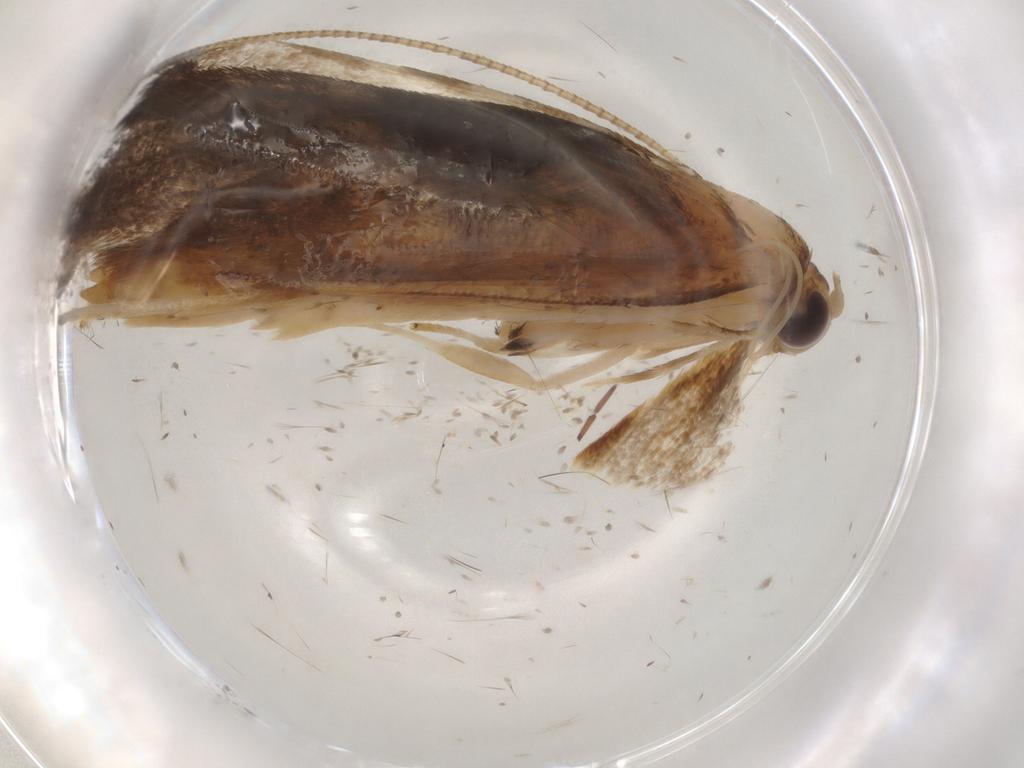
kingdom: Animalia
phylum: Arthropoda
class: Insecta
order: Lepidoptera
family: Roeslerstammiidae
